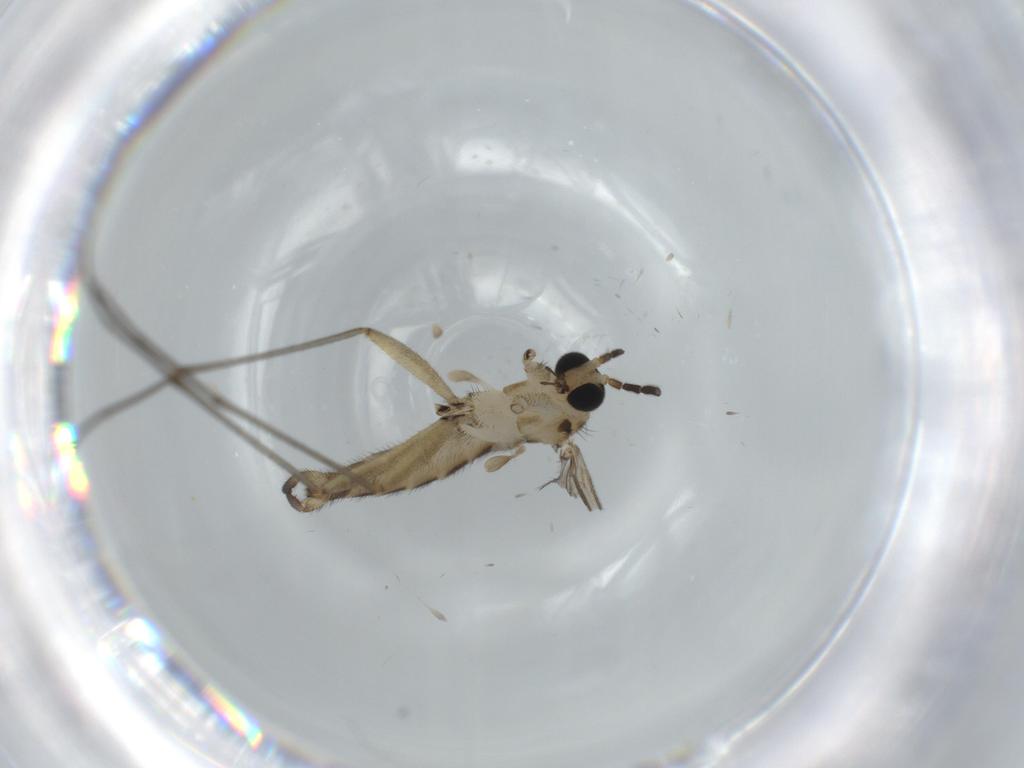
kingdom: Animalia
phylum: Arthropoda
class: Insecta
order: Diptera
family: Sciaridae
